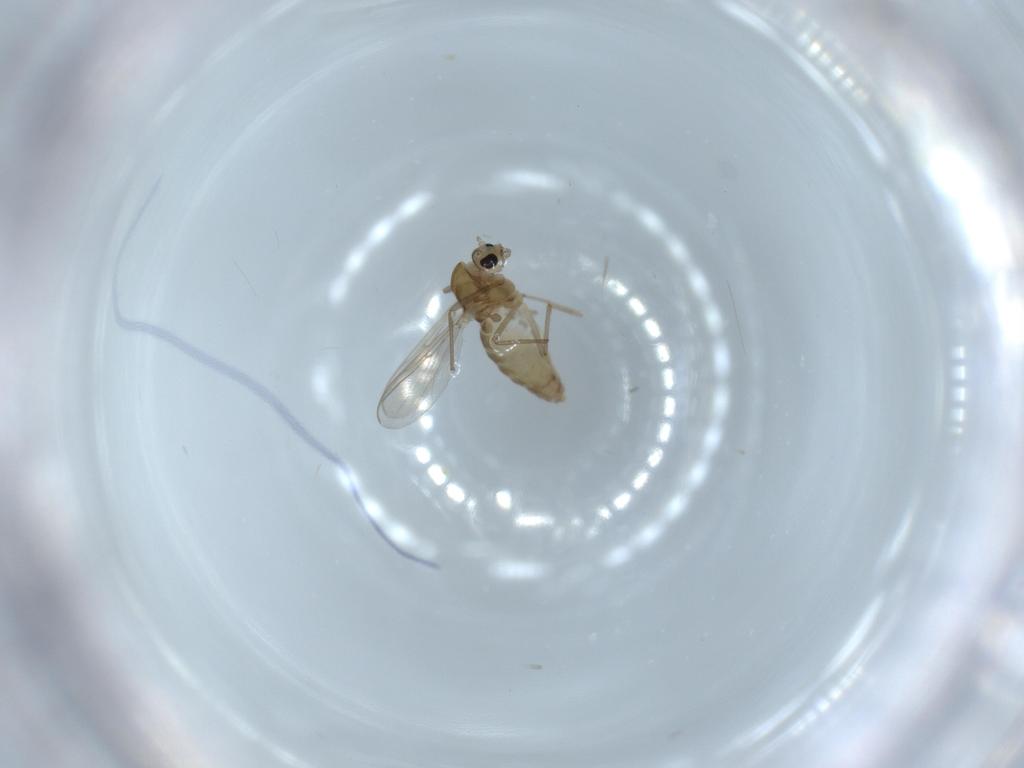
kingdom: Animalia
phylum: Arthropoda
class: Insecta
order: Diptera
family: Chironomidae
